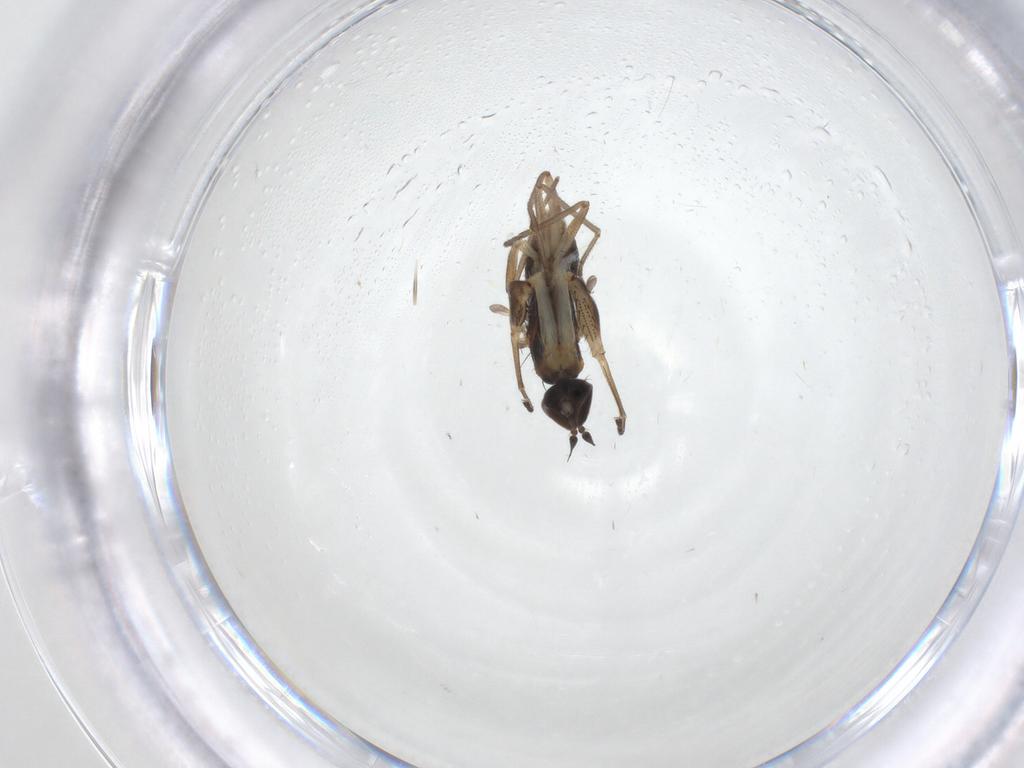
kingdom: Animalia
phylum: Arthropoda
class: Insecta
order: Diptera
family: Empididae
